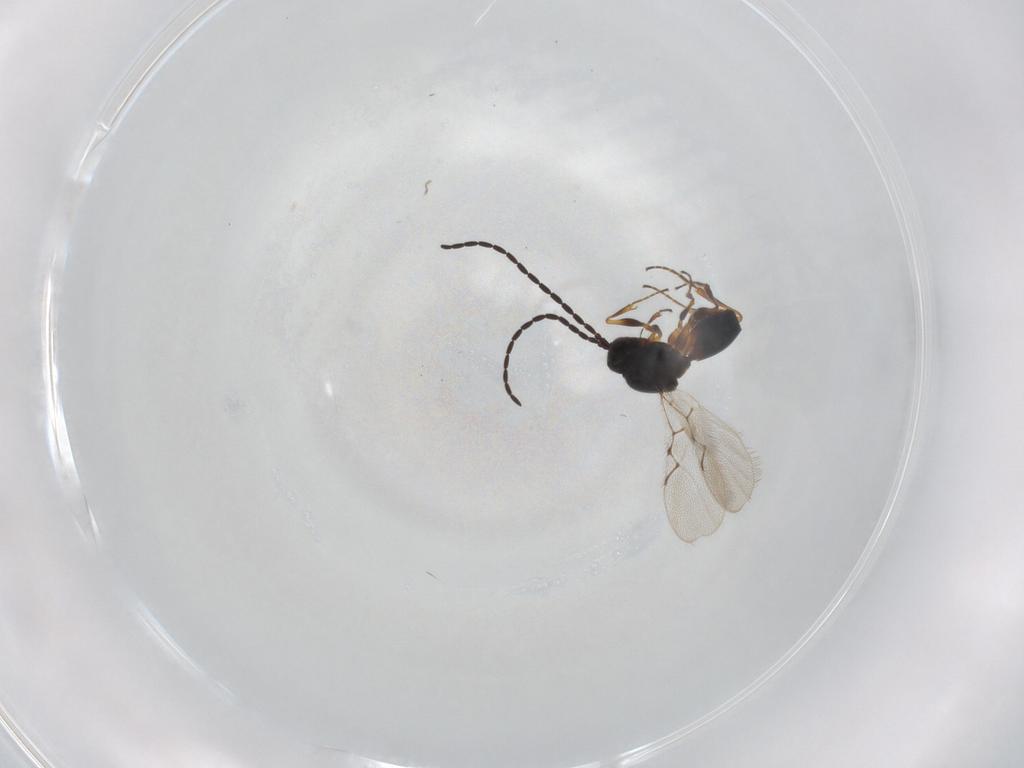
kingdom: Animalia
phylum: Arthropoda
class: Insecta
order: Hymenoptera
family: Figitidae
